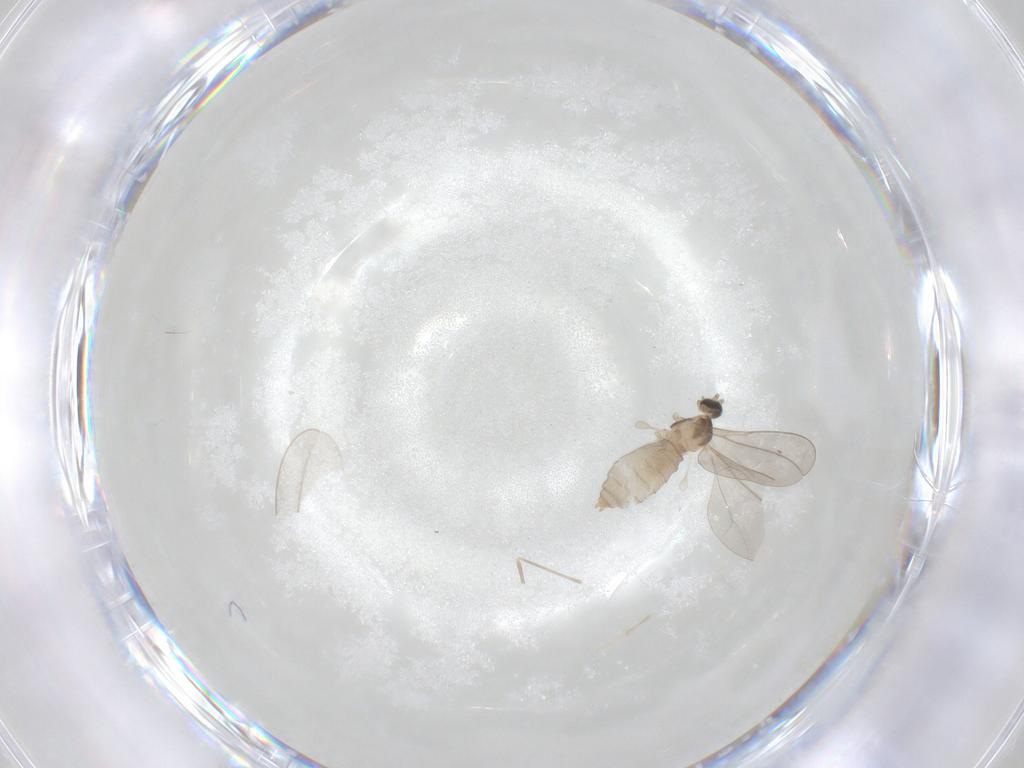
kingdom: Animalia
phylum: Arthropoda
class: Insecta
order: Diptera
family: Cecidomyiidae
